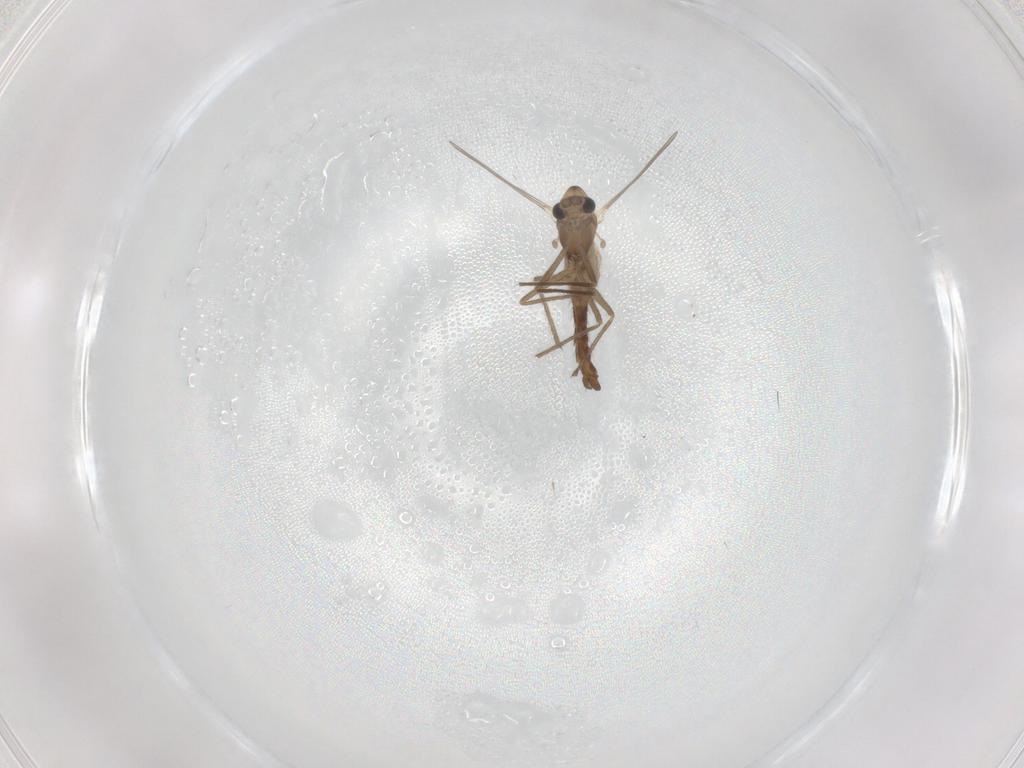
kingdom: Animalia
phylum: Arthropoda
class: Insecta
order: Diptera
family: Chironomidae
